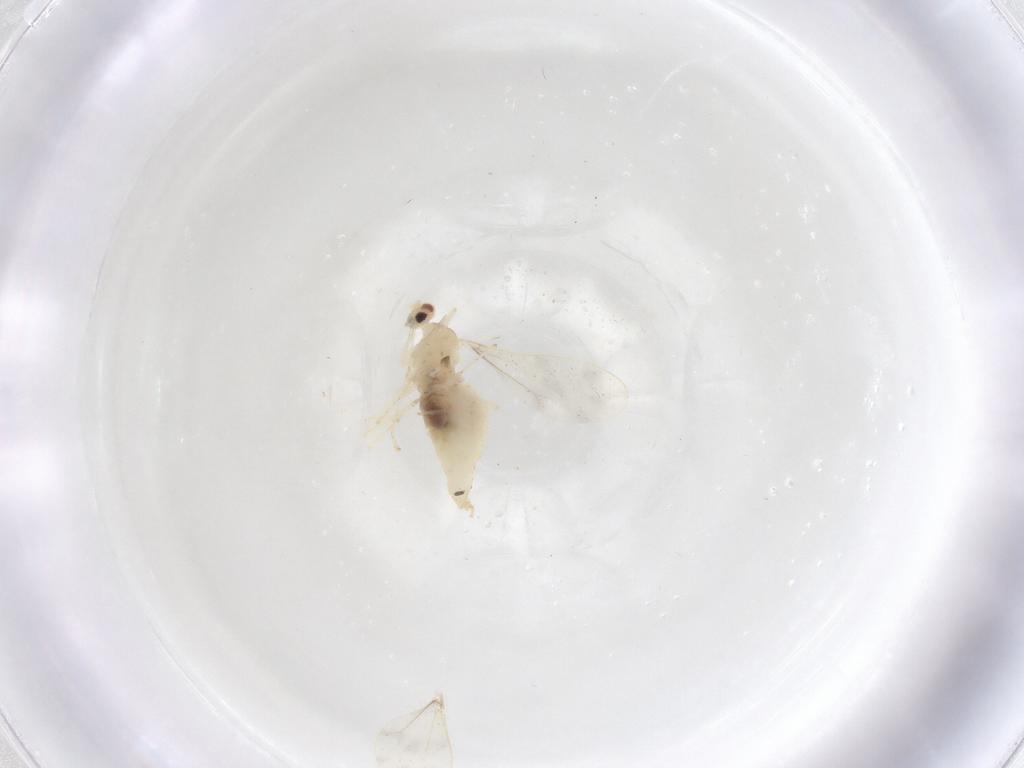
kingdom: Animalia
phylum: Arthropoda
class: Insecta
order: Diptera
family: Cecidomyiidae
